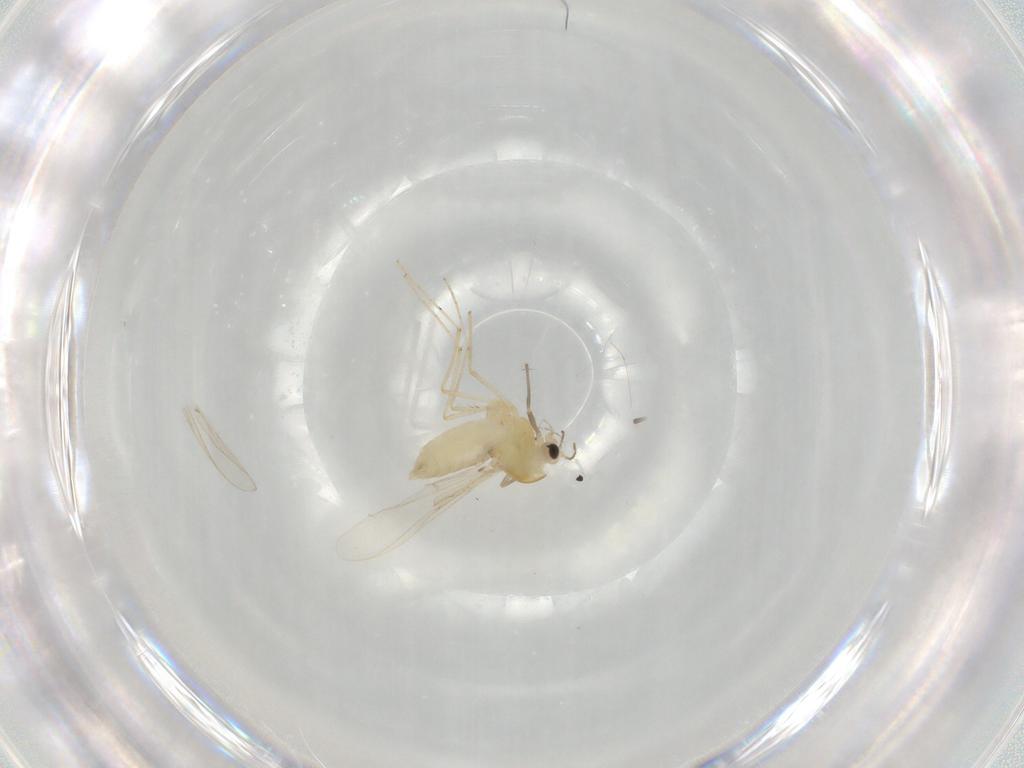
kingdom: Animalia
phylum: Arthropoda
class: Insecta
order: Diptera
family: Chironomidae
